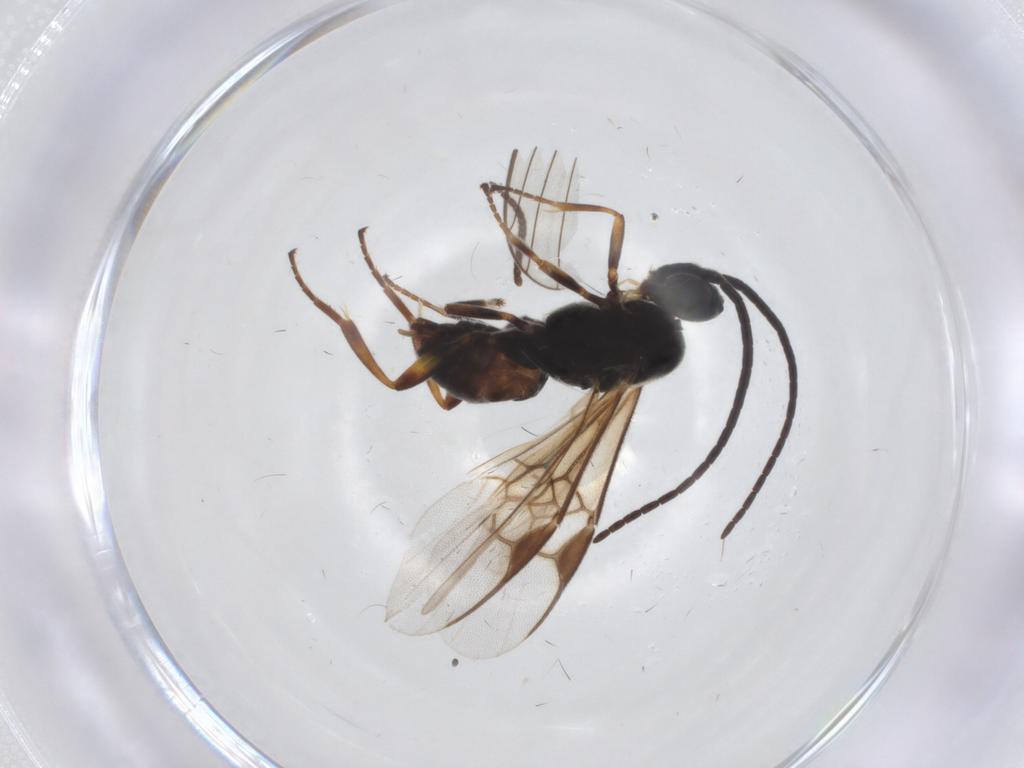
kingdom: Animalia
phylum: Arthropoda
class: Insecta
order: Hymenoptera
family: Braconidae
